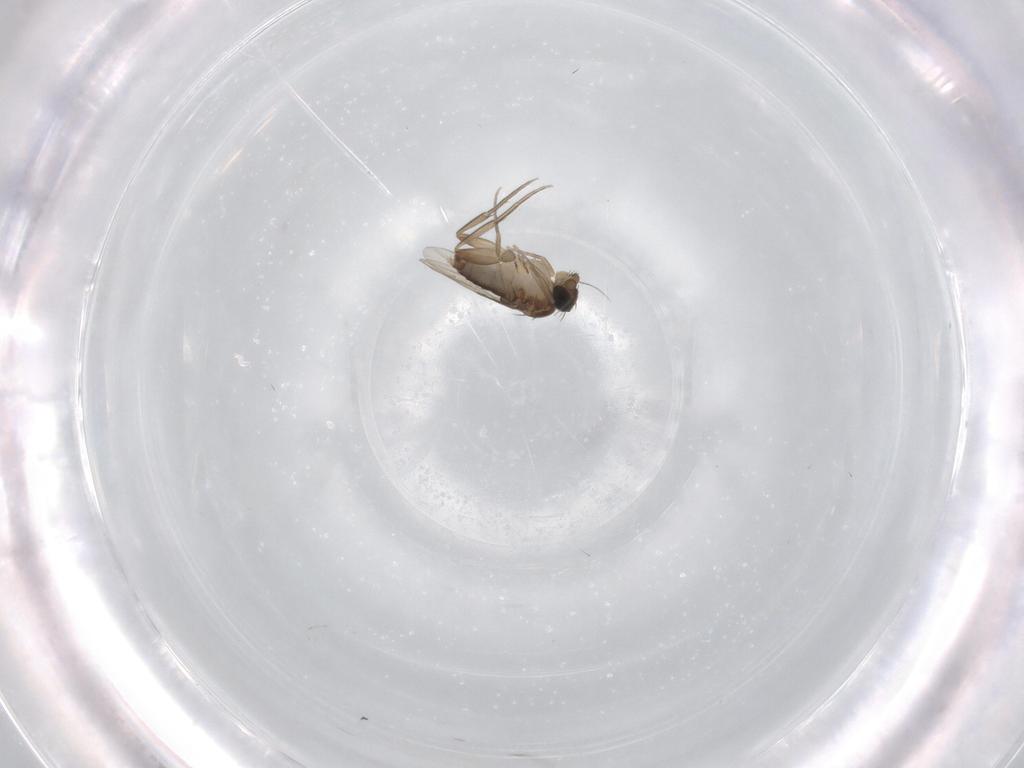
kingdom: Animalia
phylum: Arthropoda
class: Insecta
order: Diptera
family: Phoridae
